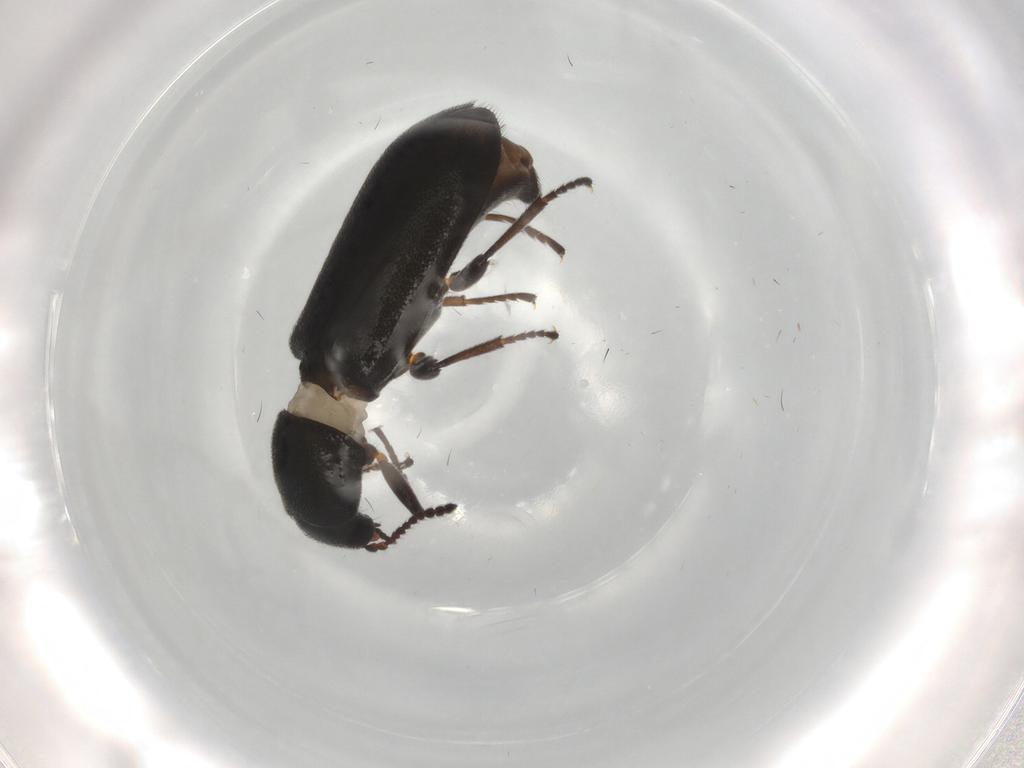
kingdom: Animalia
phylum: Arthropoda
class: Insecta
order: Coleoptera
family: Melyridae
